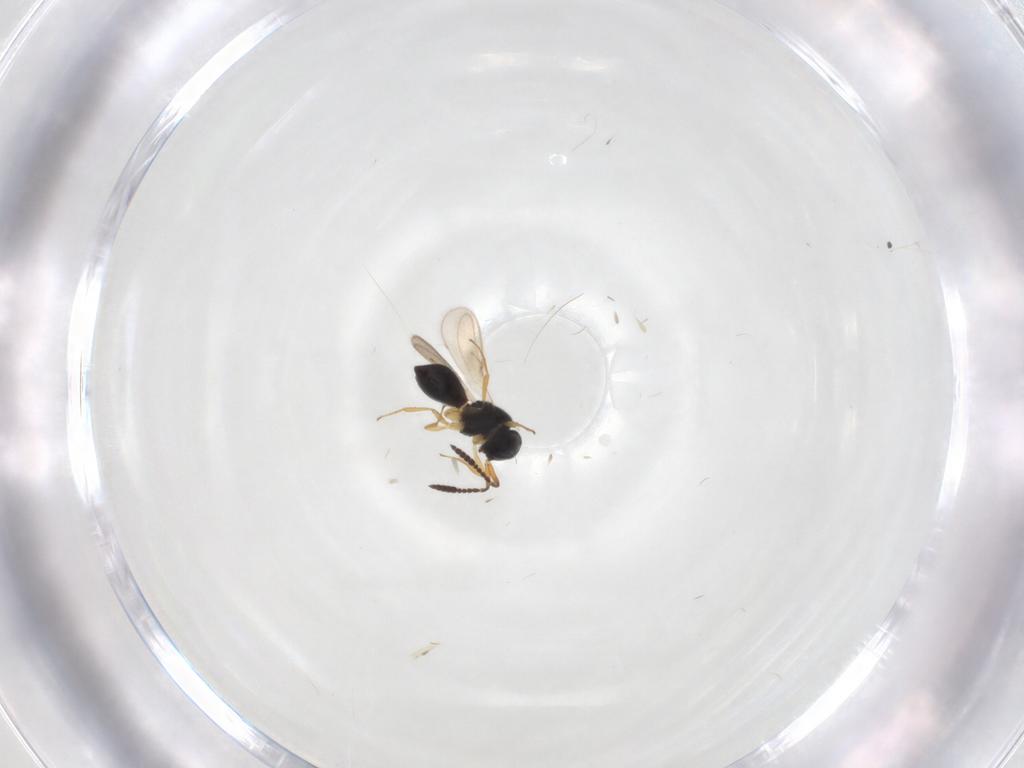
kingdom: Animalia
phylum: Arthropoda
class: Insecta
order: Hymenoptera
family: Scelionidae
